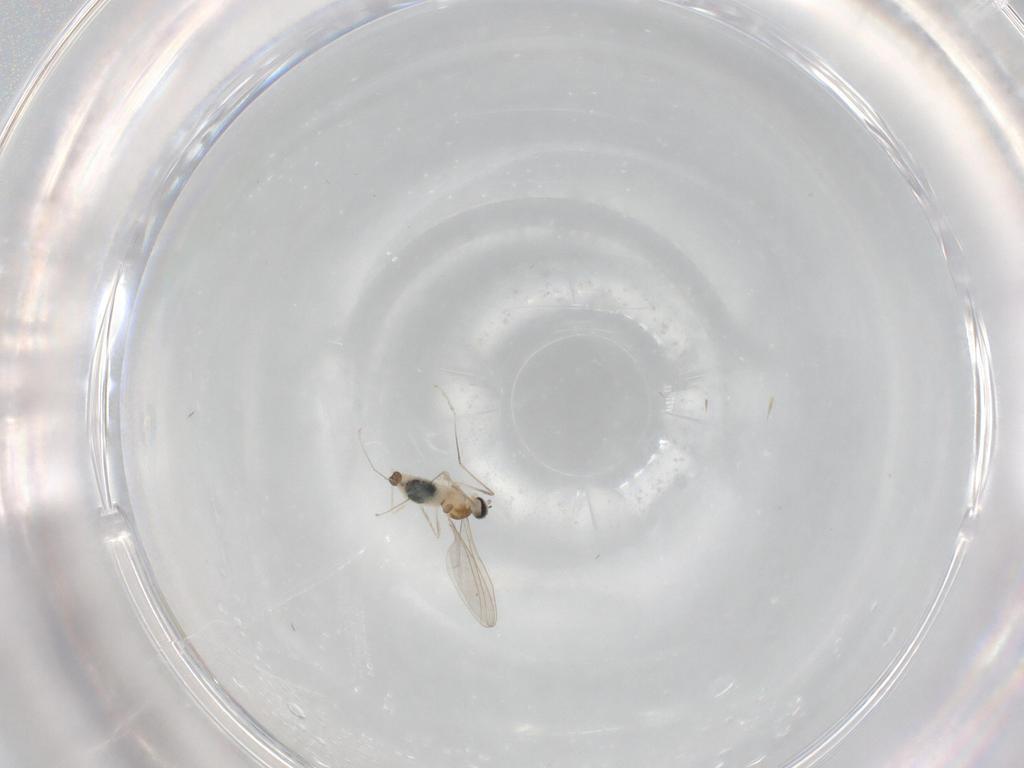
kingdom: Animalia
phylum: Arthropoda
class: Insecta
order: Diptera
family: Cecidomyiidae
